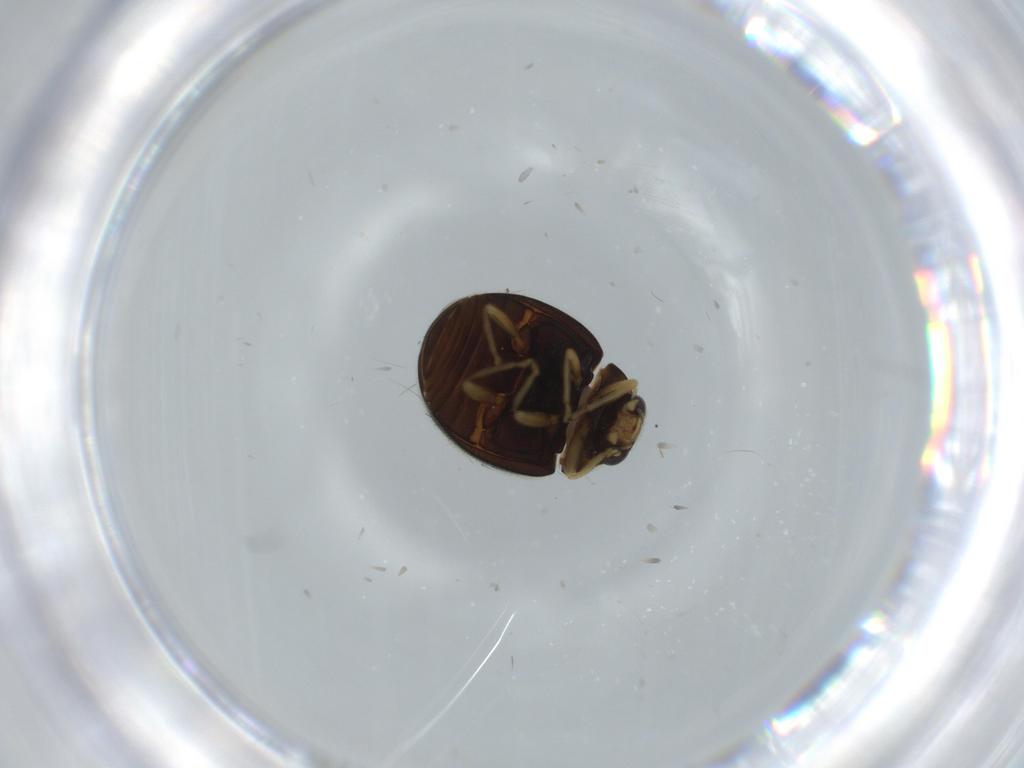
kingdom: Animalia
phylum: Arthropoda
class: Insecta
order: Coleoptera
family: Coccinellidae
